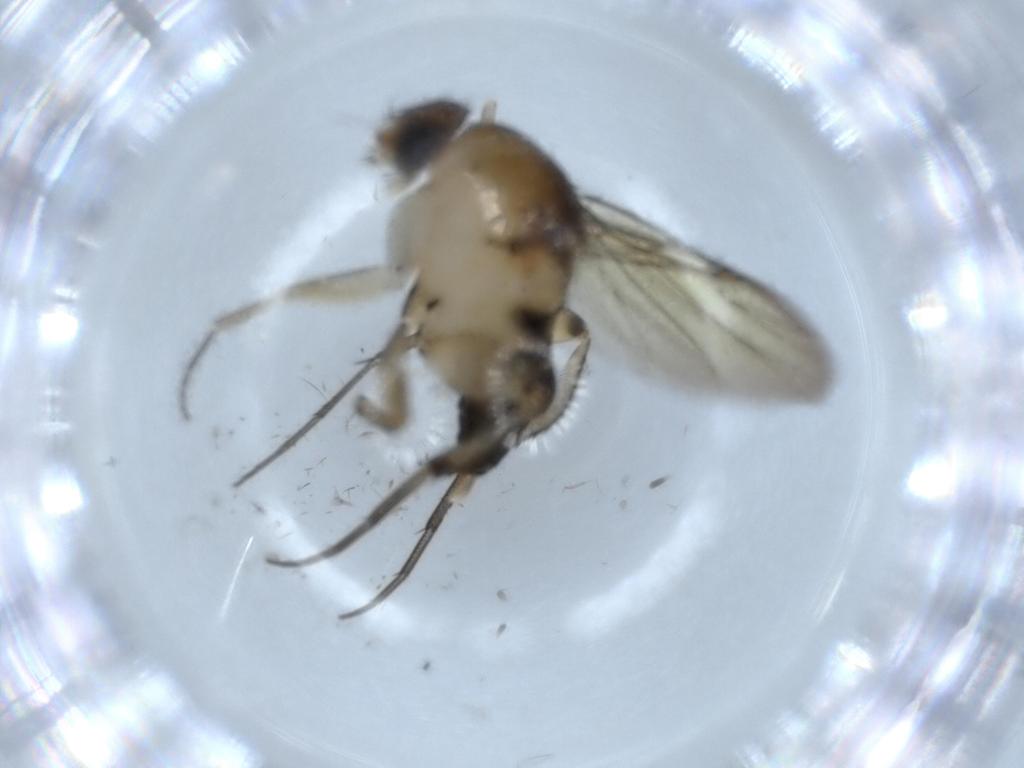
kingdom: Animalia
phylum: Arthropoda
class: Insecta
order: Diptera
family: Phoridae
